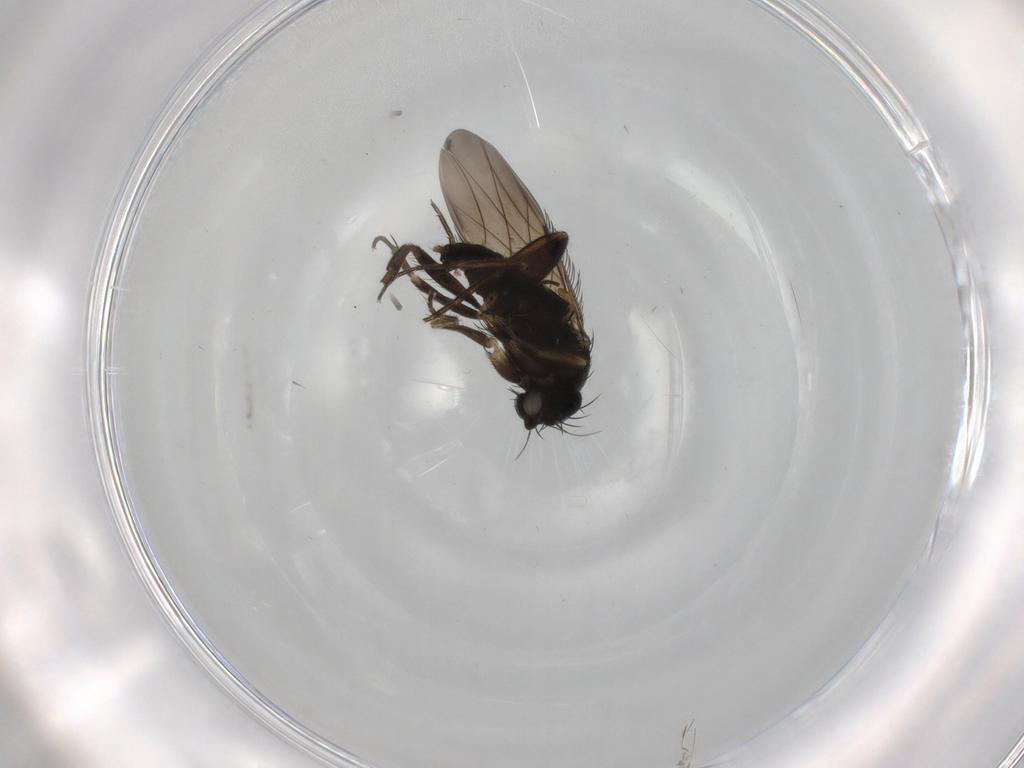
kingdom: Animalia
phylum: Arthropoda
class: Insecta
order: Diptera
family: Phoridae
